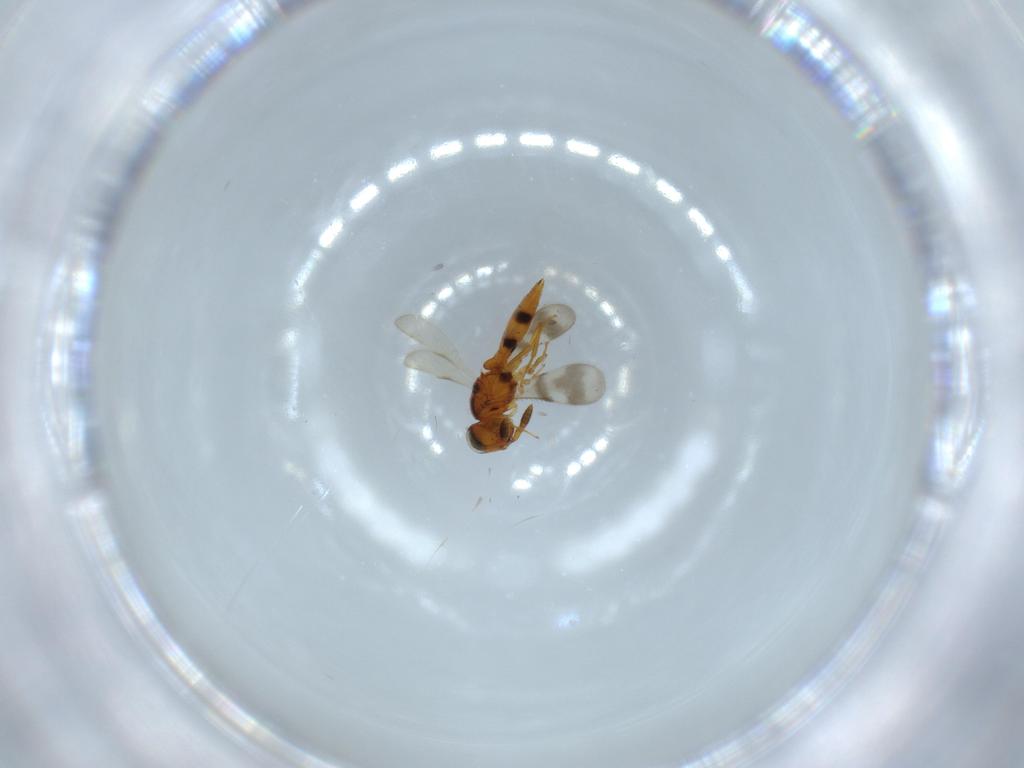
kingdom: Animalia
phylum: Arthropoda
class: Insecta
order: Hymenoptera
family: Scelionidae
